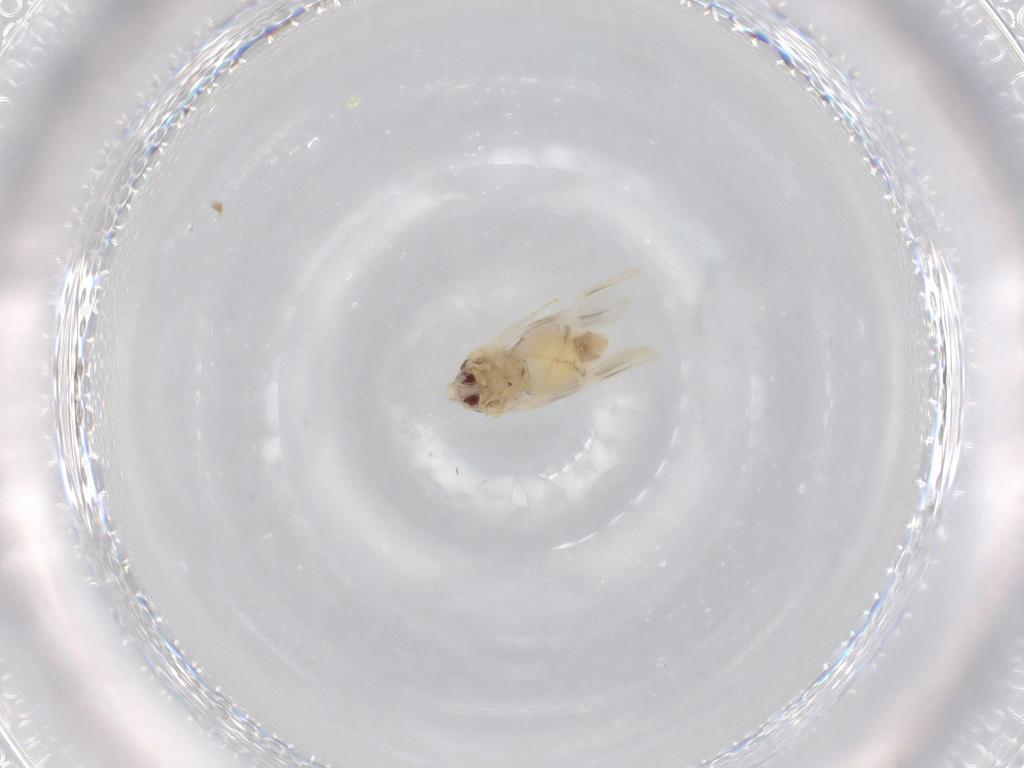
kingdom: Animalia
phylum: Arthropoda
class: Insecta
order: Hemiptera
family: Aleyrodidae
